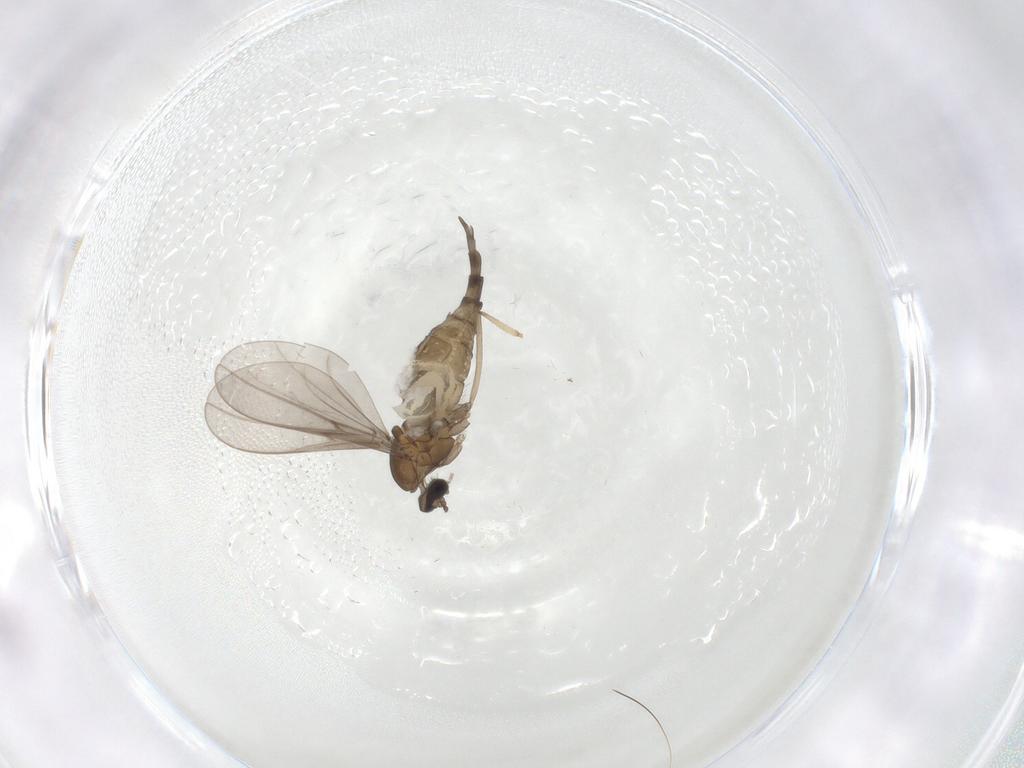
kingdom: Animalia
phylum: Arthropoda
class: Insecta
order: Diptera
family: Cecidomyiidae
